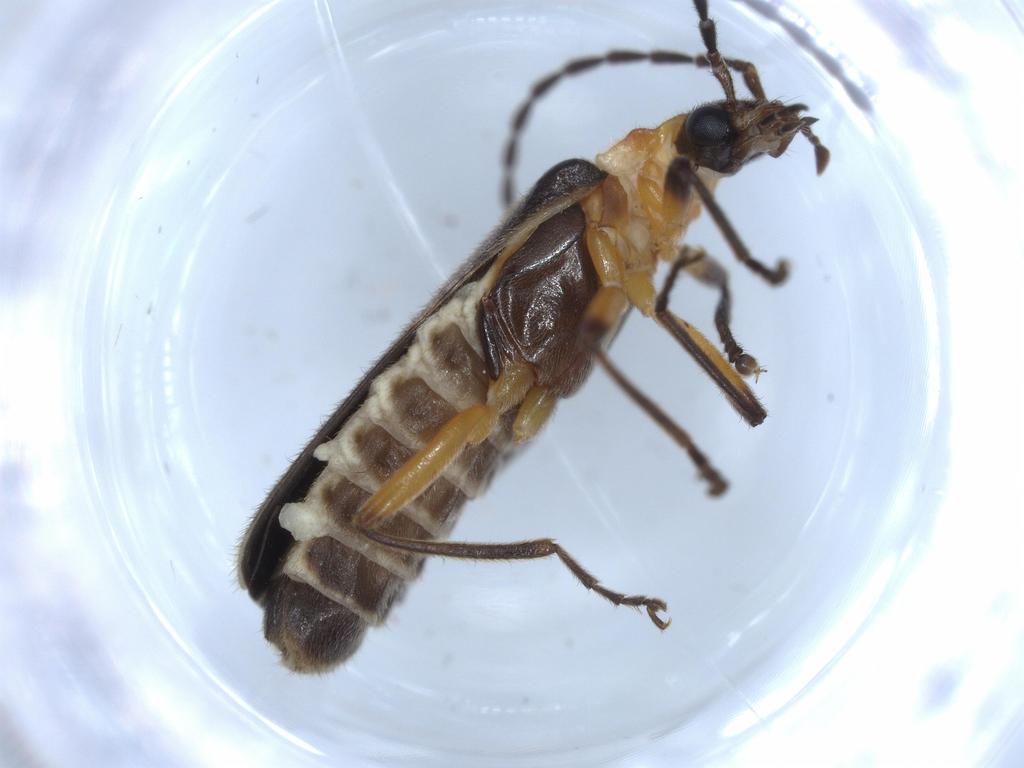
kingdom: Animalia
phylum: Arthropoda
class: Insecta
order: Coleoptera
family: Cantharidae
